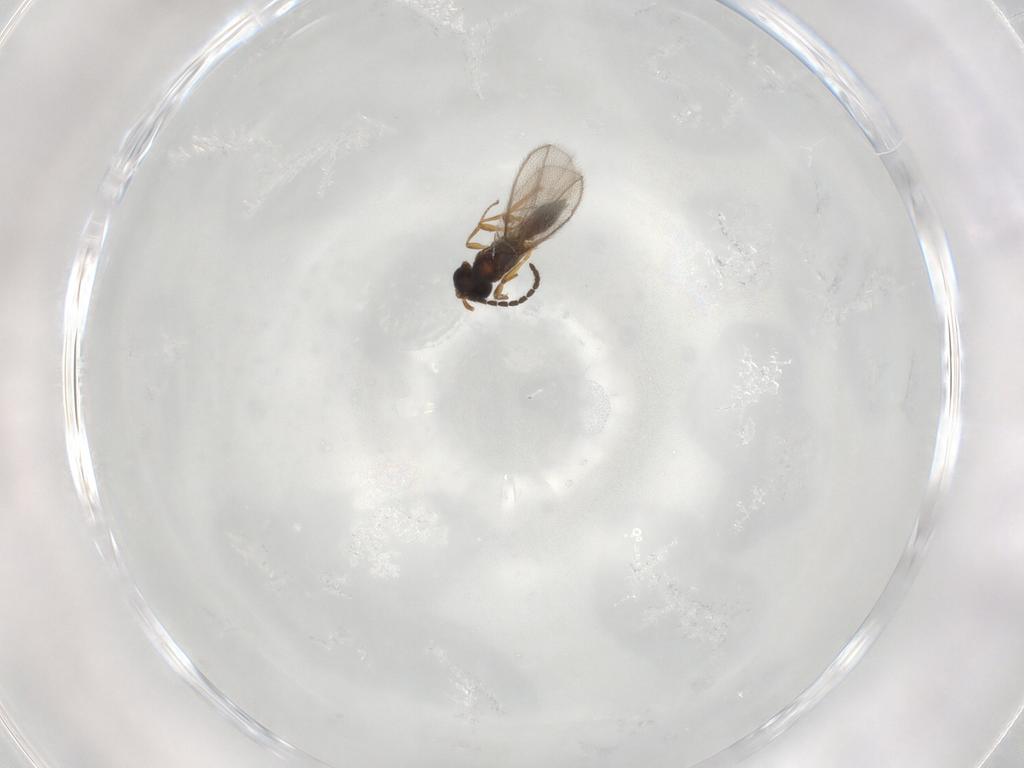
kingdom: Animalia
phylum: Arthropoda
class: Insecta
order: Hymenoptera
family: Braconidae
